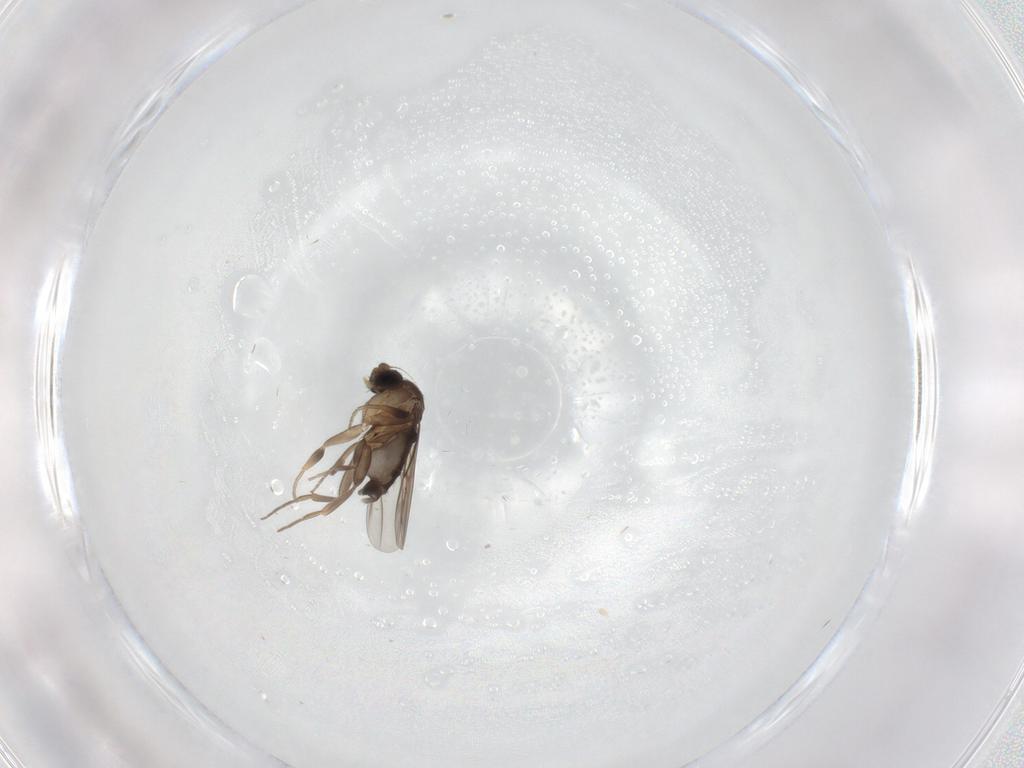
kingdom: Animalia
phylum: Arthropoda
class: Insecta
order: Diptera
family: Phoridae
